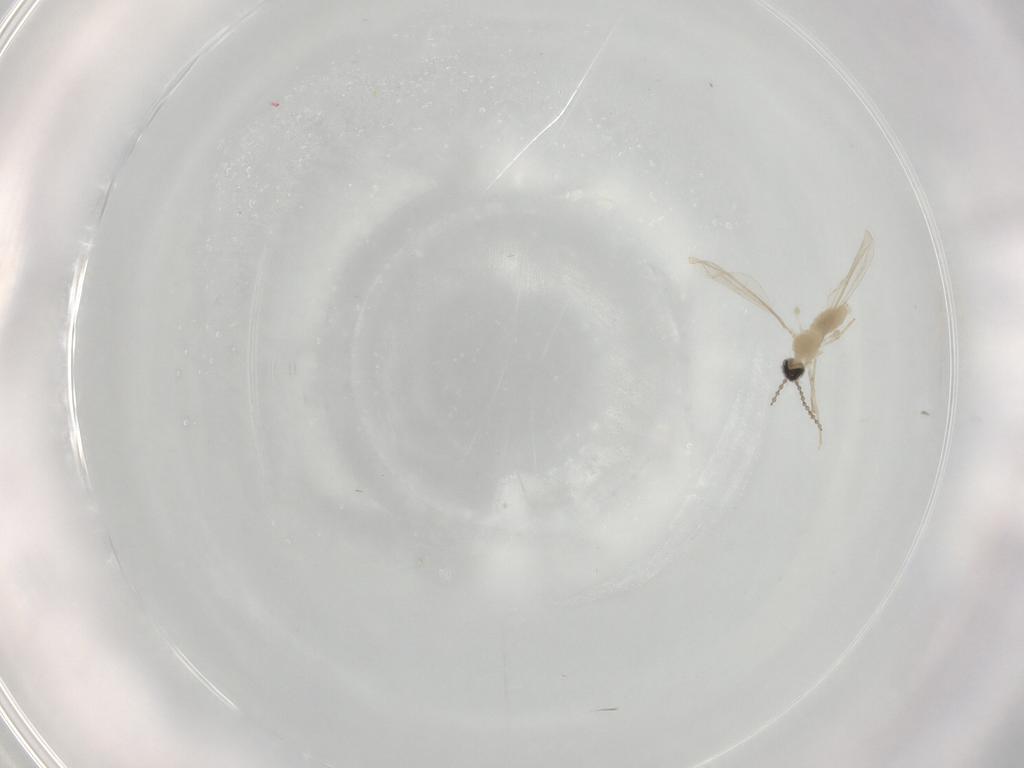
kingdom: Animalia
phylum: Arthropoda
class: Insecta
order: Diptera
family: Cecidomyiidae
